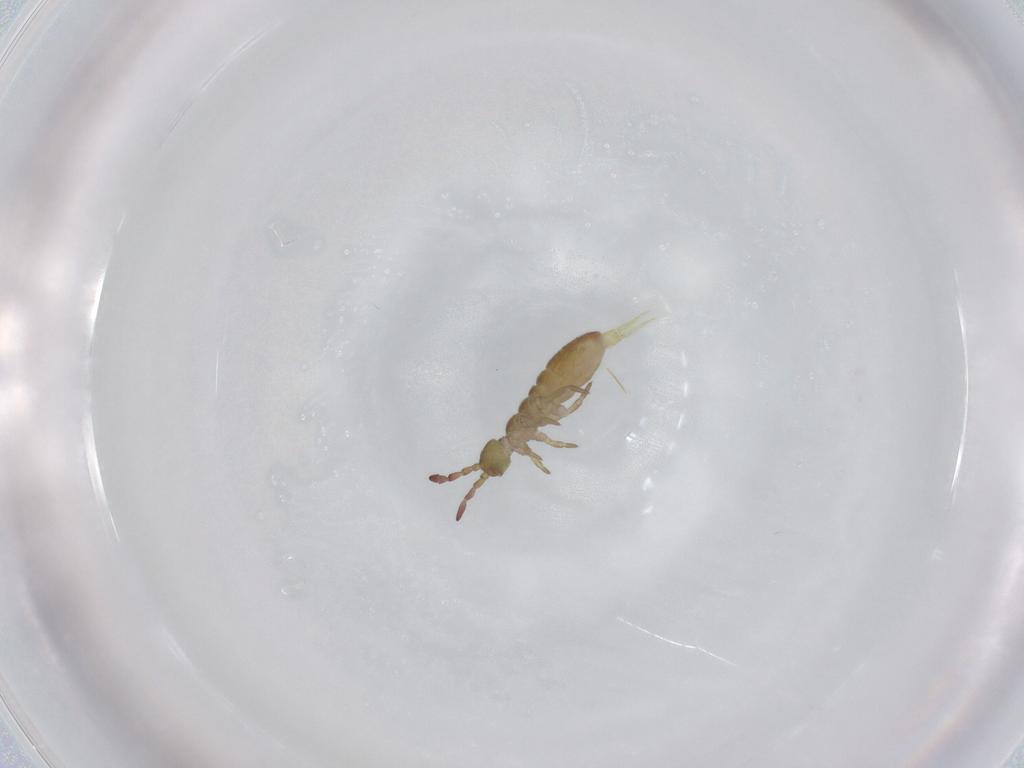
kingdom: Animalia
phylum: Arthropoda
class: Collembola
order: Entomobryomorpha
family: Isotomidae
